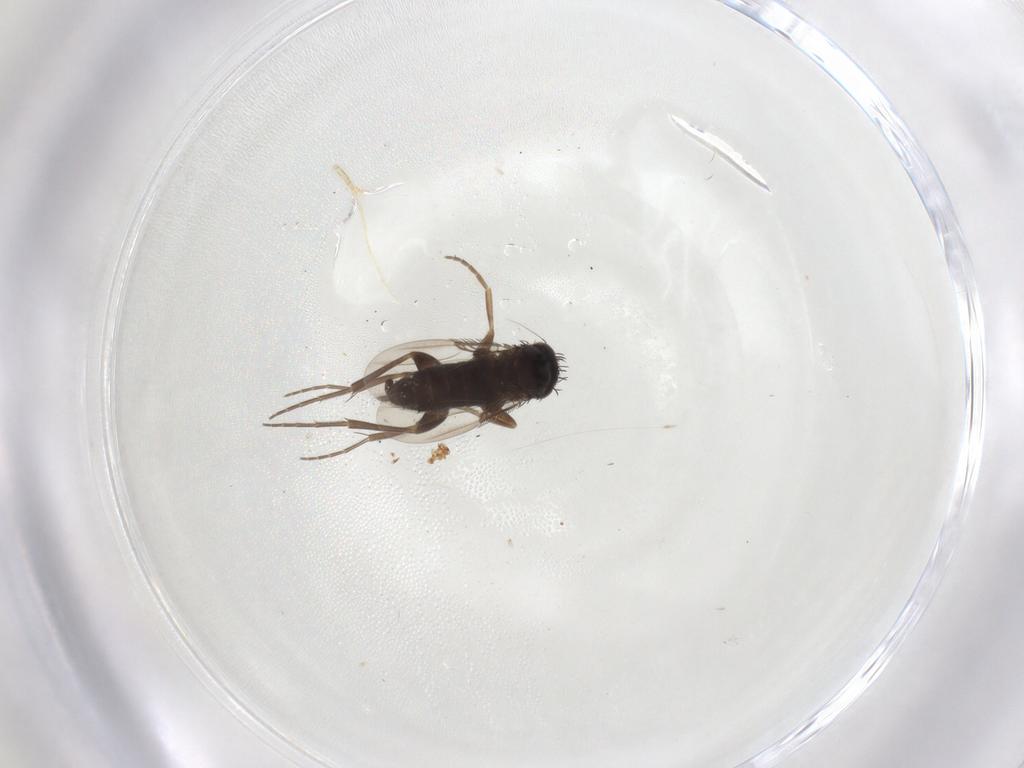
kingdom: Animalia
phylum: Arthropoda
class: Insecta
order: Diptera
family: Phoridae
